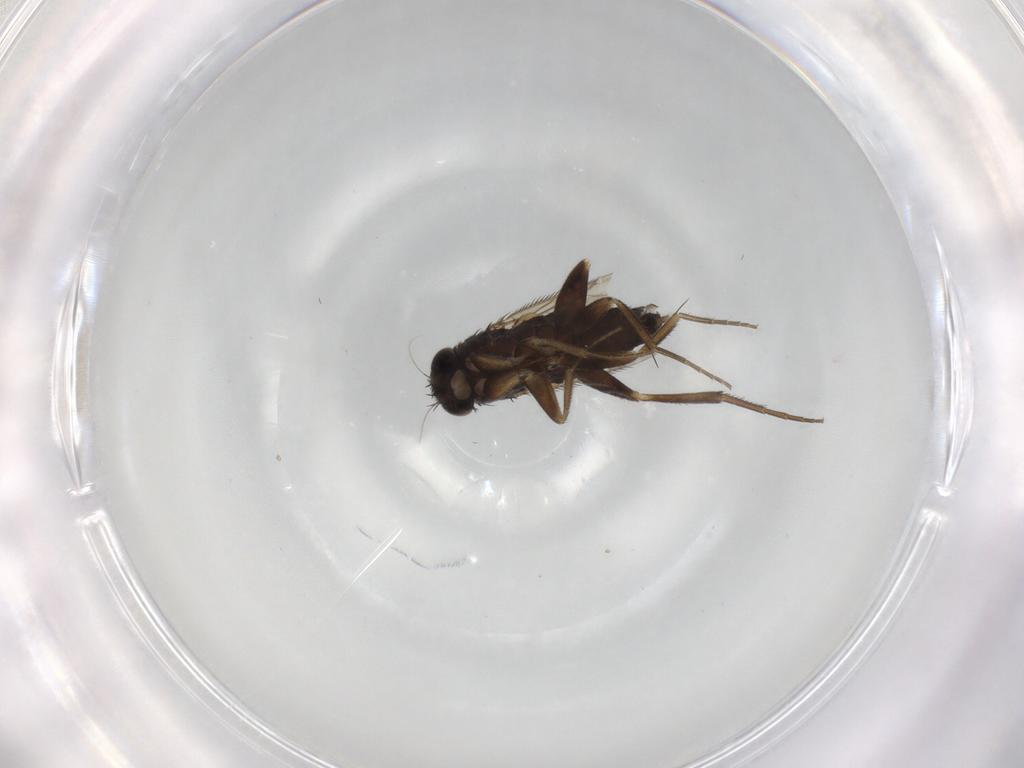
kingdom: Animalia
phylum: Arthropoda
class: Insecta
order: Diptera
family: Phoridae
